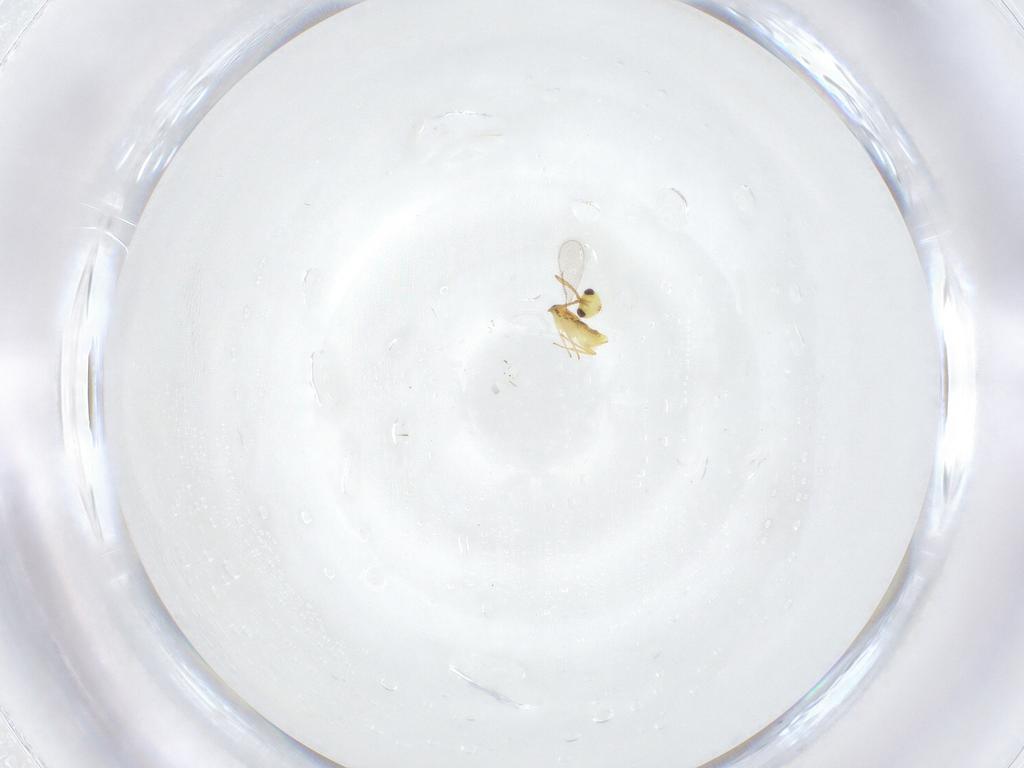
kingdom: Animalia
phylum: Arthropoda
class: Insecta
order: Hymenoptera
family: Aphelinidae
